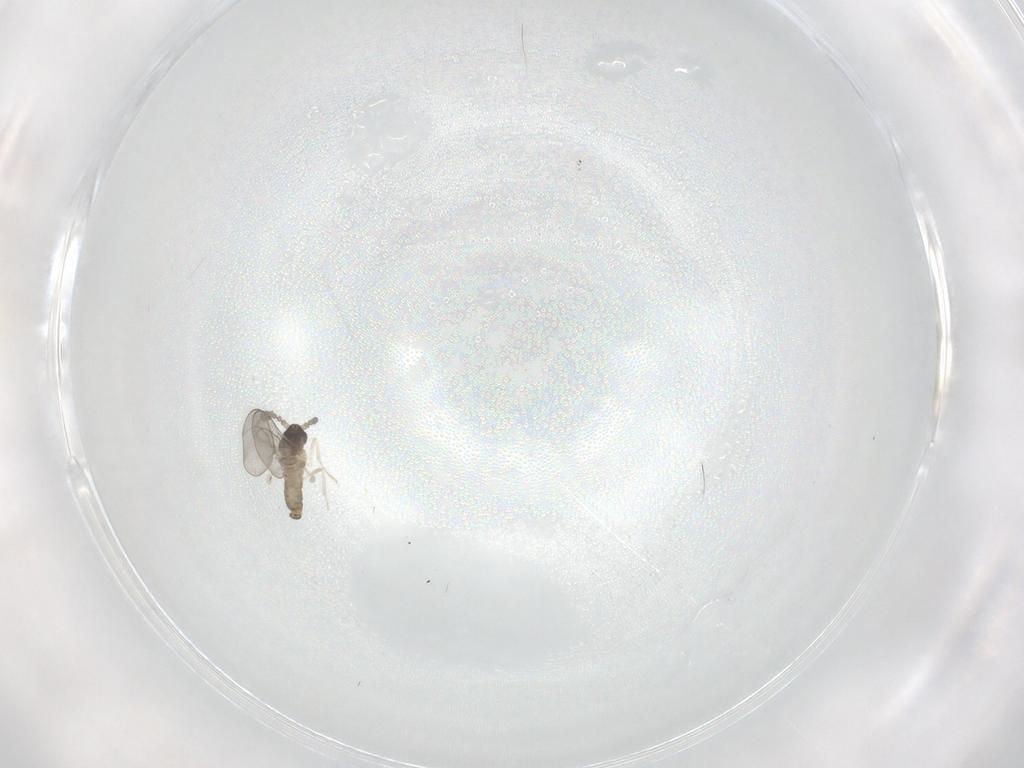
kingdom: Animalia
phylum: Arthropoda
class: Insecta
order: Diptera
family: Cecidomyiidae
